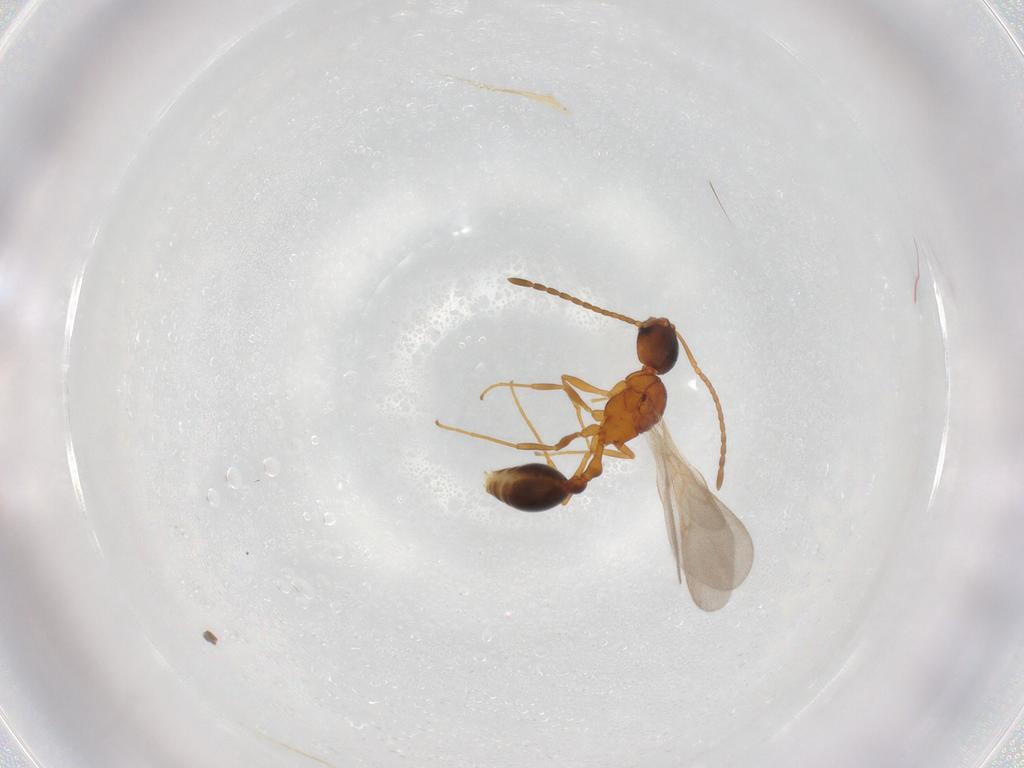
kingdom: Animalia
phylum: Arthropoda
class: Insecta
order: Hymenoptera
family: Formicidae
